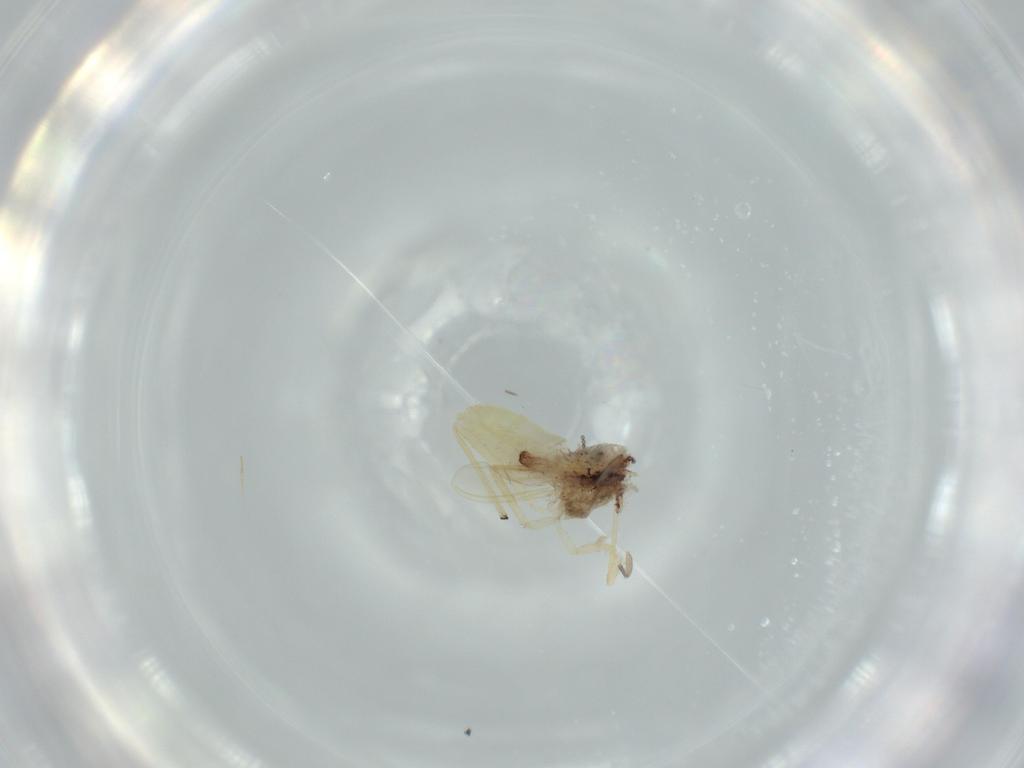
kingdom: Animalia
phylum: Arthropoda
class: Insecta
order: Diptera
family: Chironomidae
